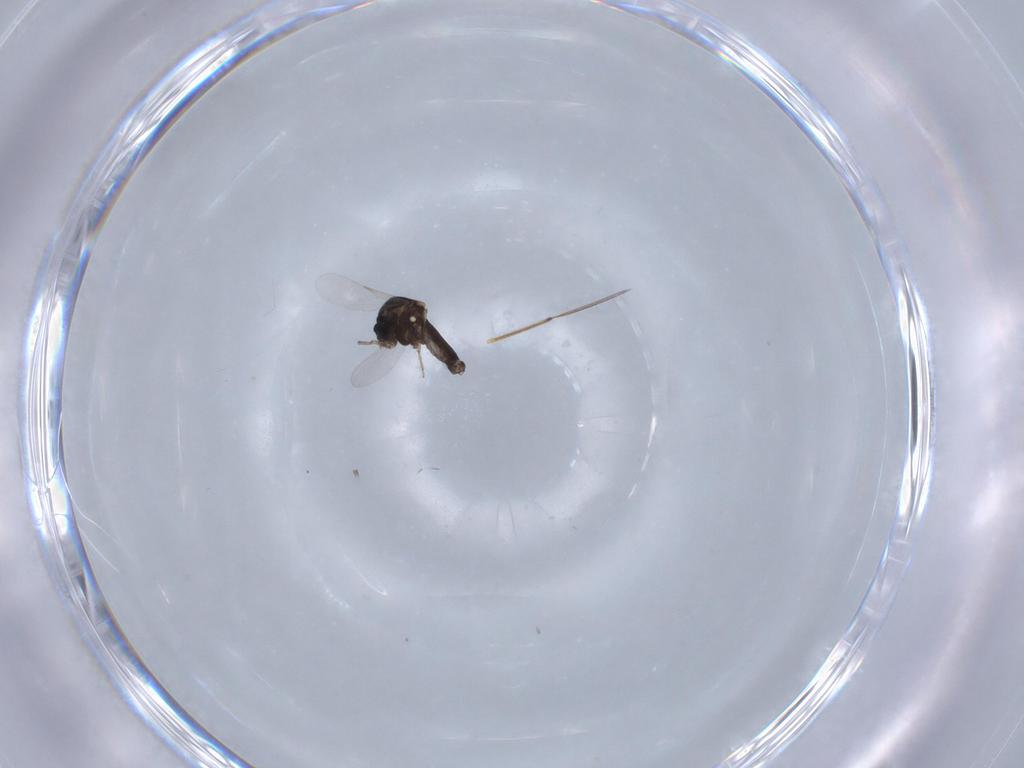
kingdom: Animalia
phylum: Arthropoda
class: Insecta
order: Diptera
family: Ceratopogonidae
